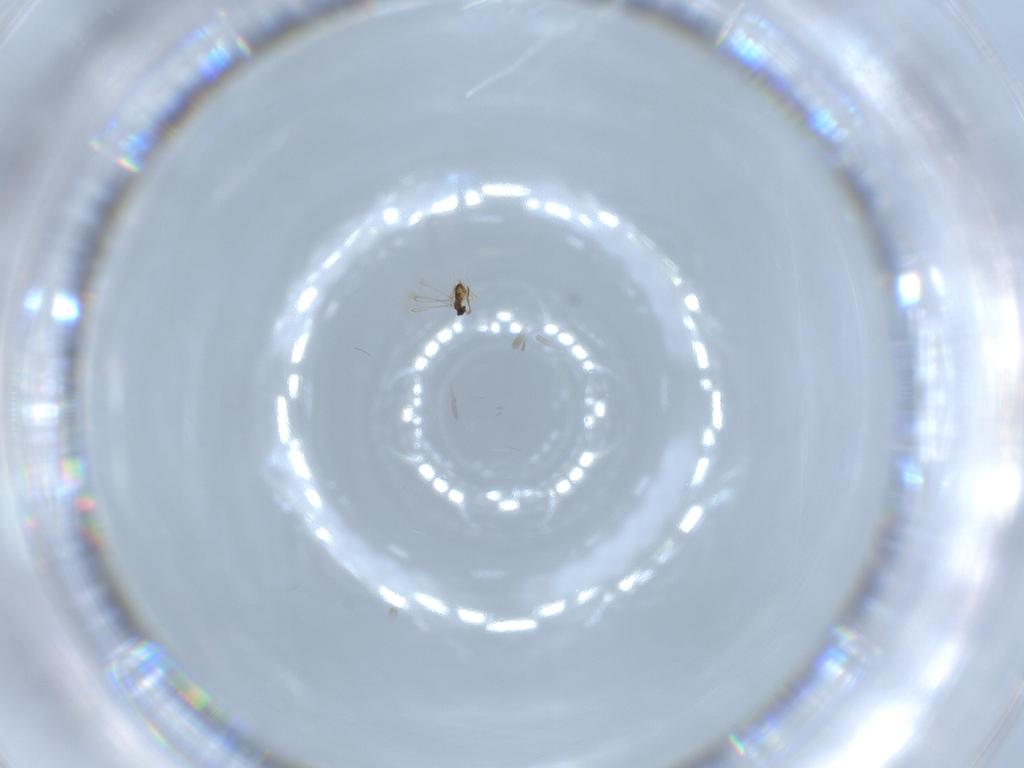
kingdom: Animalia
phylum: Arthropoda
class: Insecta
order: Hymenoptera
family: Mymaridae
